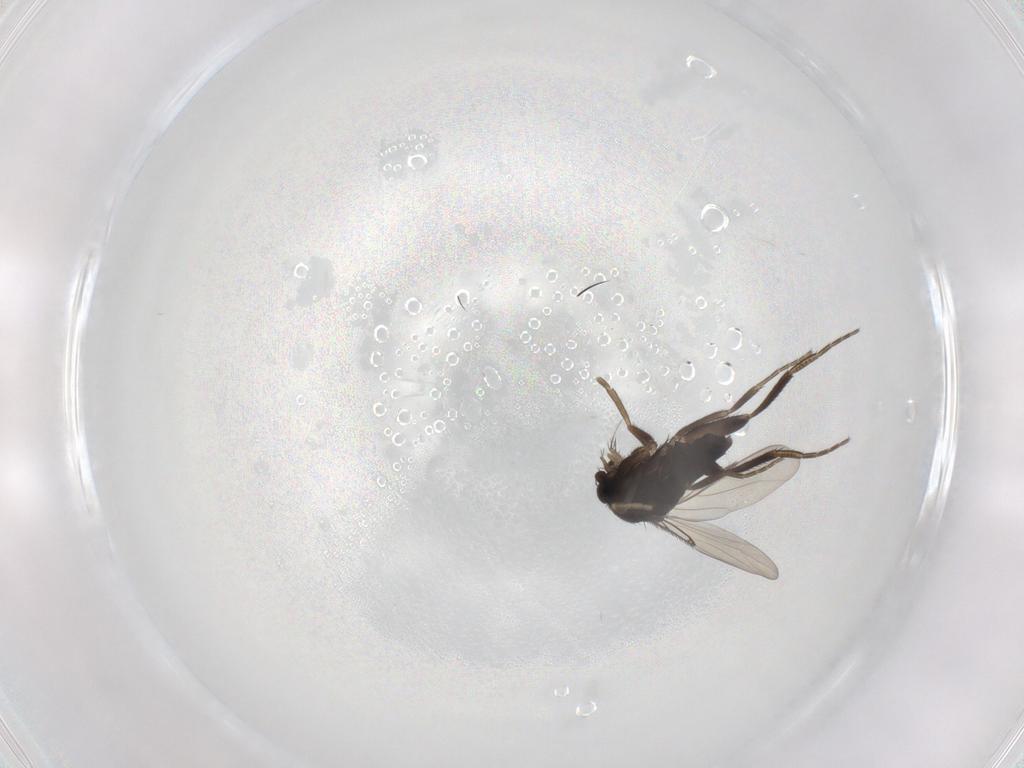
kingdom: Animalia
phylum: Arthropoda
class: Insecta
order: Diptera
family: Phoridae
